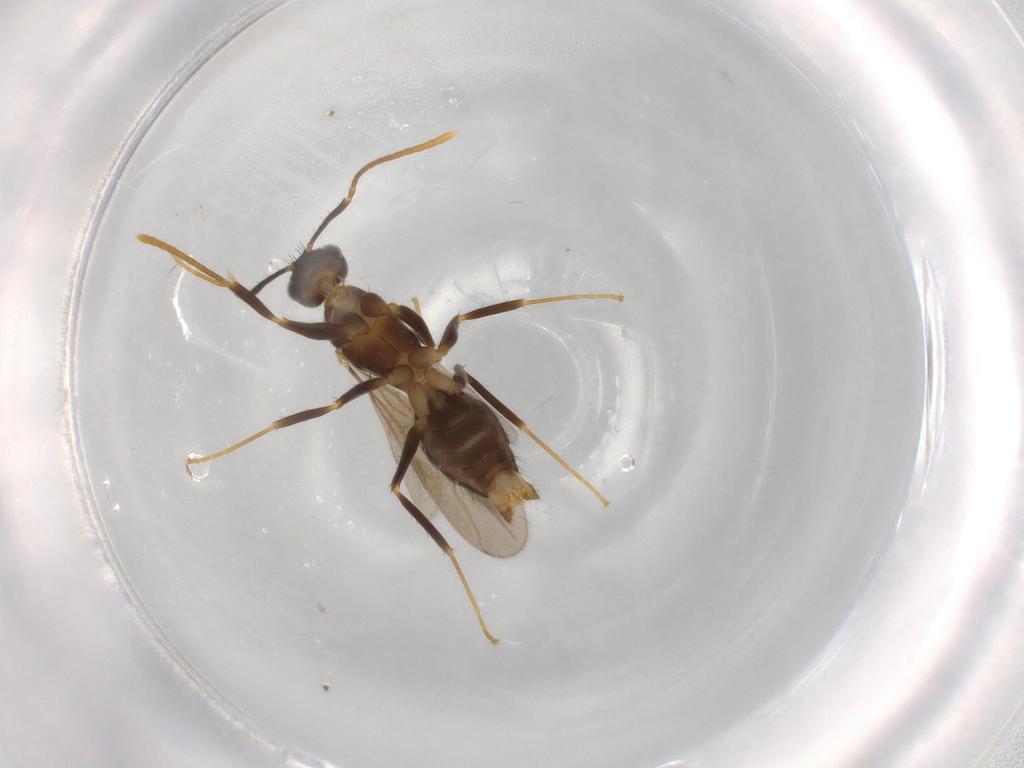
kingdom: Animalia
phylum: Arthropoda
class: Insecta
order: Hymenoptera
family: Formicidae
